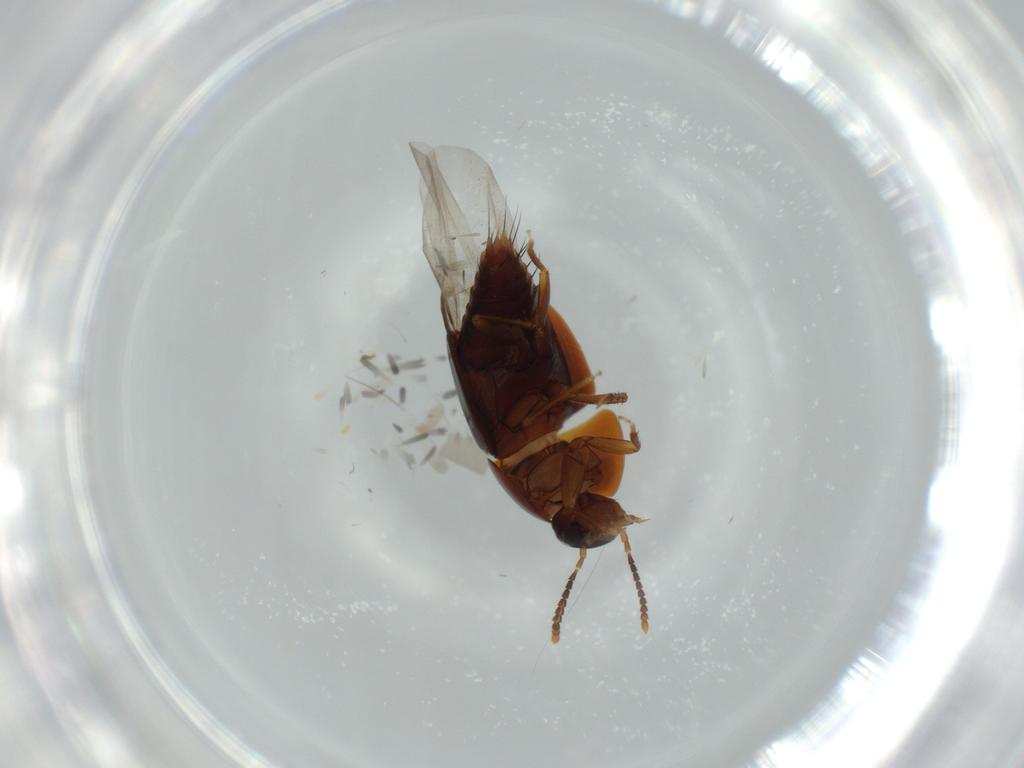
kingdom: Animalia
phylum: Arthropoda
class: Insecta
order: Coleoptera
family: Staphylinidae
